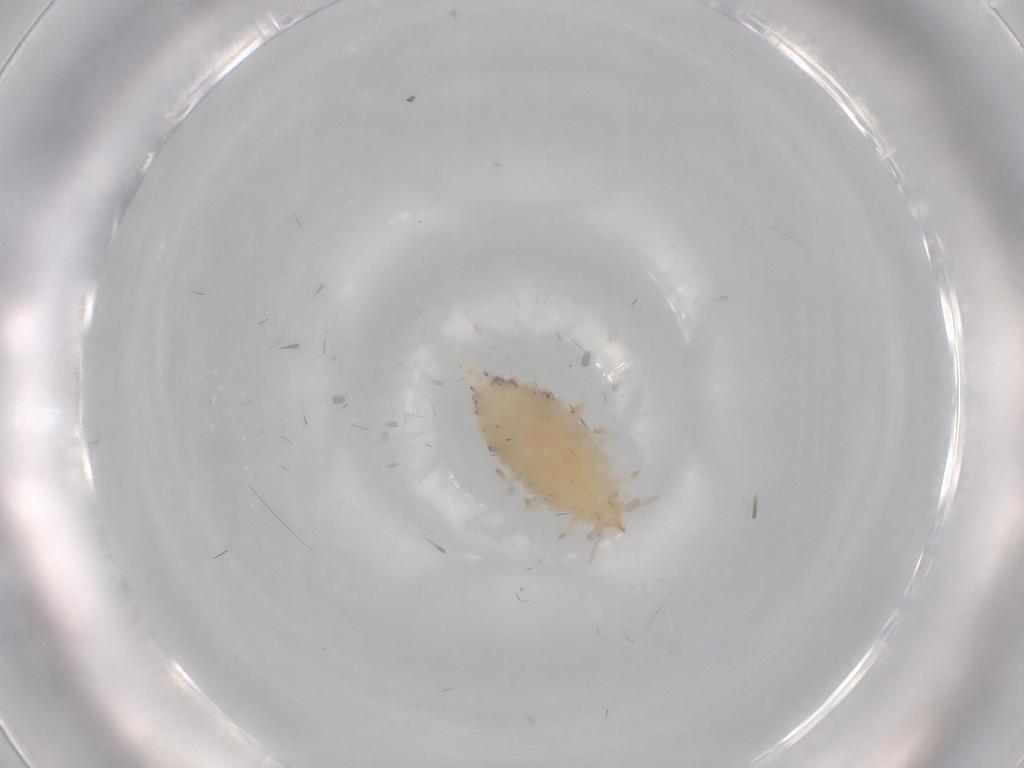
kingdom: Animalia
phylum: Arthropoda
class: Insecta
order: Neuroptera
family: Coniopterygidae
